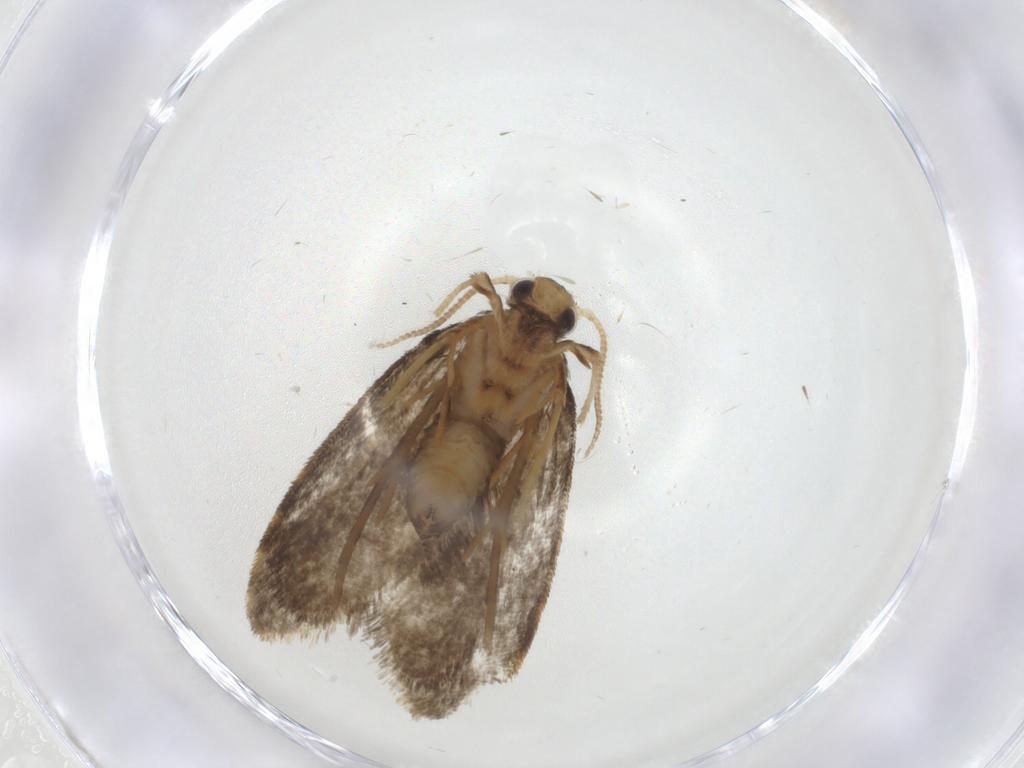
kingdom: Animalia
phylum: Arthropoda
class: Insecta
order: Lepidoptera
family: Psychidae
